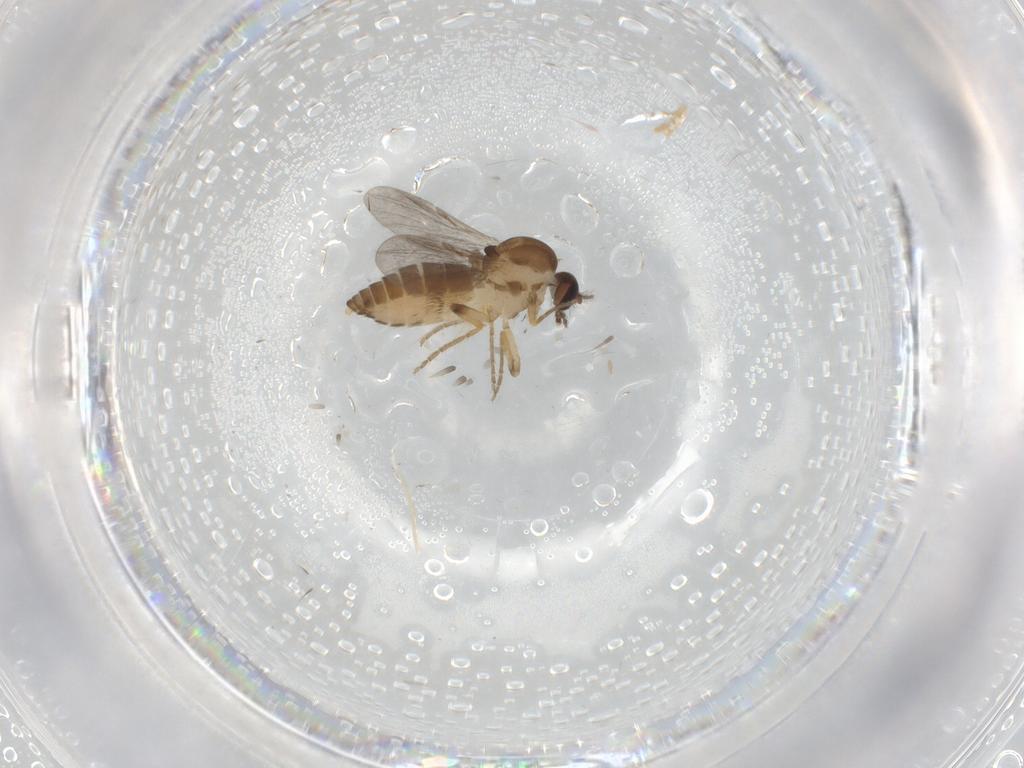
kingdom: Animalia
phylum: Arthropoda
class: Insecta
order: Diptera
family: Ceratopogonidae
